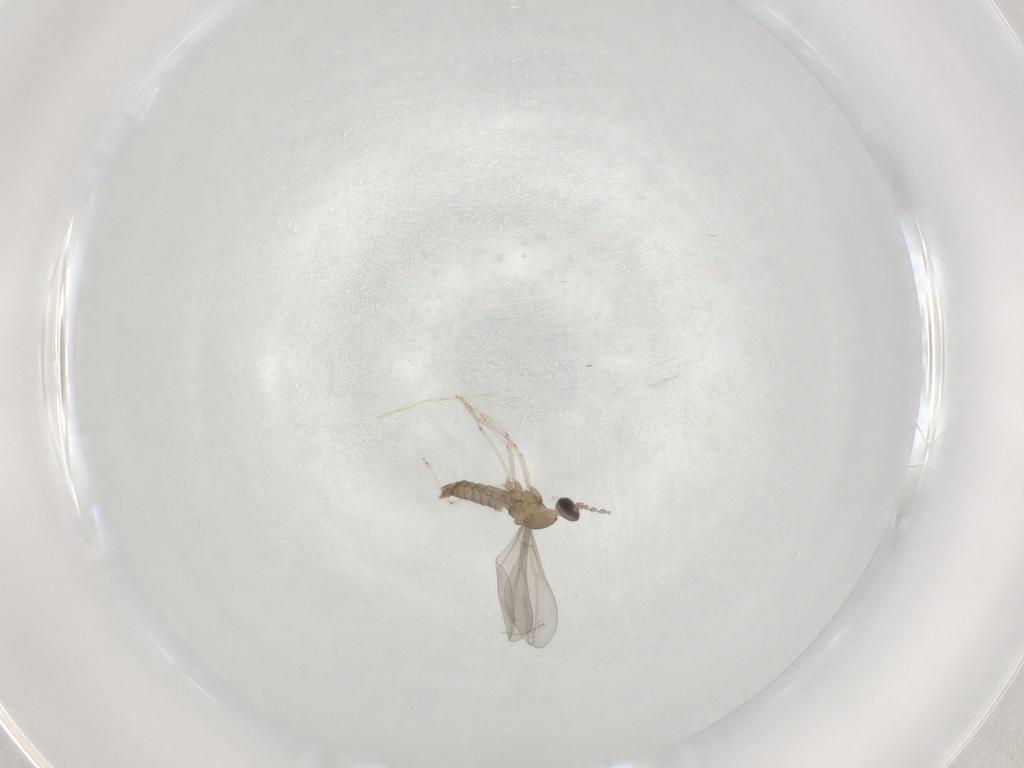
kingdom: Animalia
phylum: Arthropoda
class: Insecta
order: Diptera
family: Cecidomyiidae
